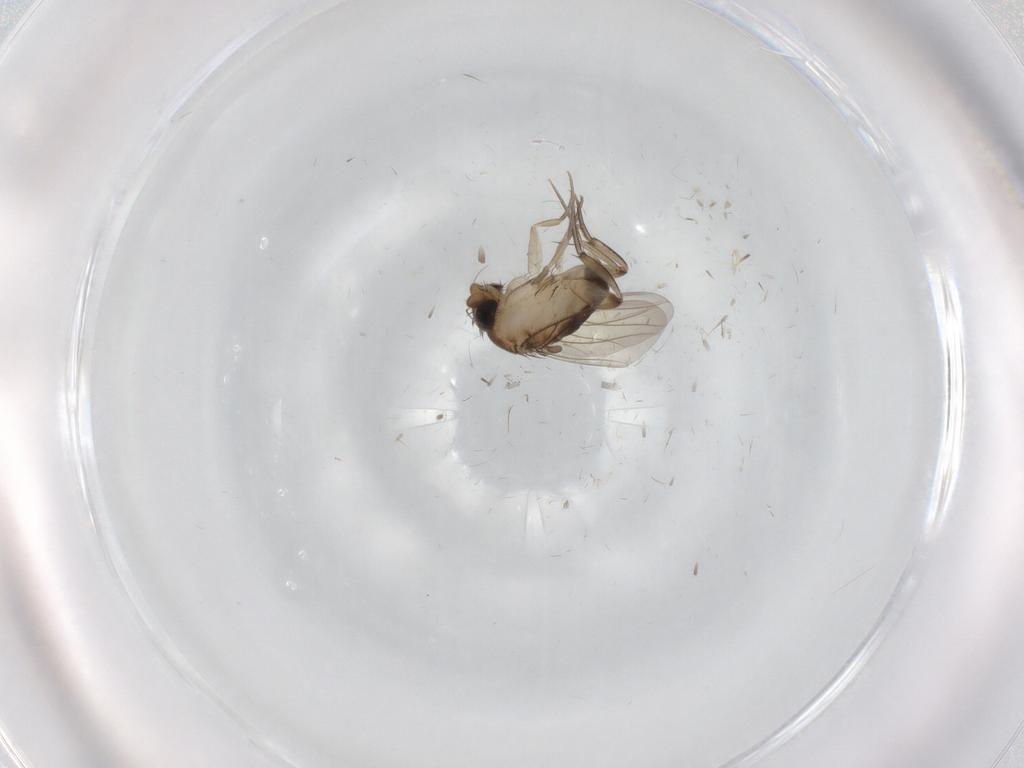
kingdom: Animalia
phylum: Arthropoda
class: Insecta
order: Diptera
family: Phoridae
